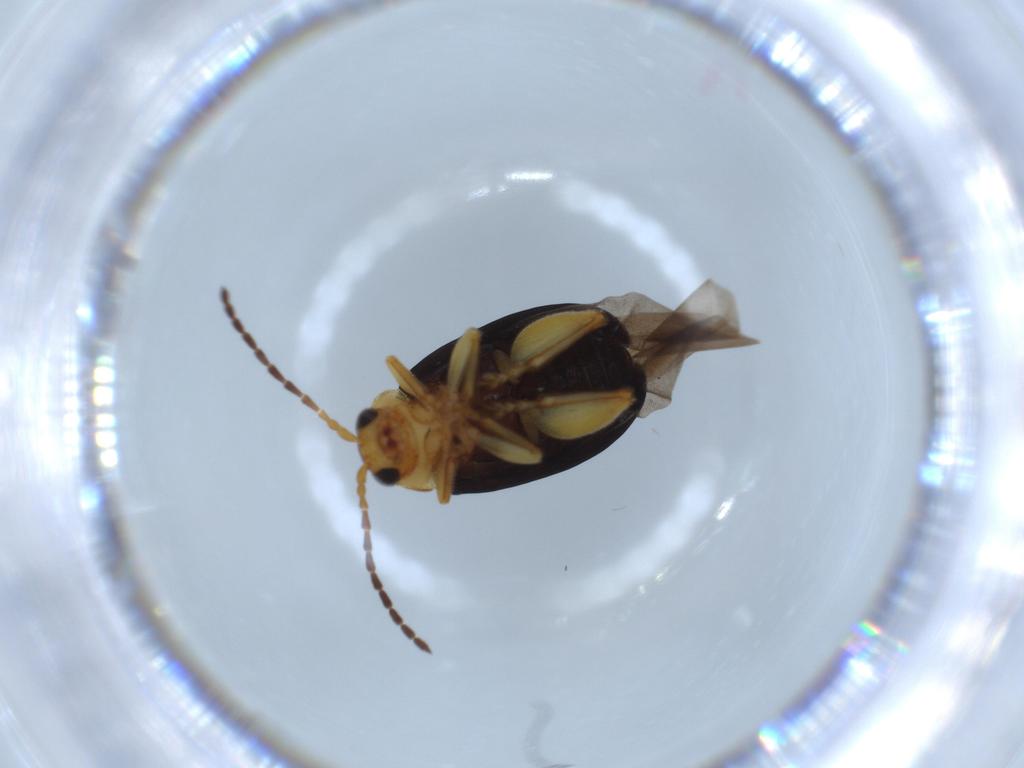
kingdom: Animalia
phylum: Arthropoda
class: Insecta
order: Coleoptera
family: Chrysomelidae
